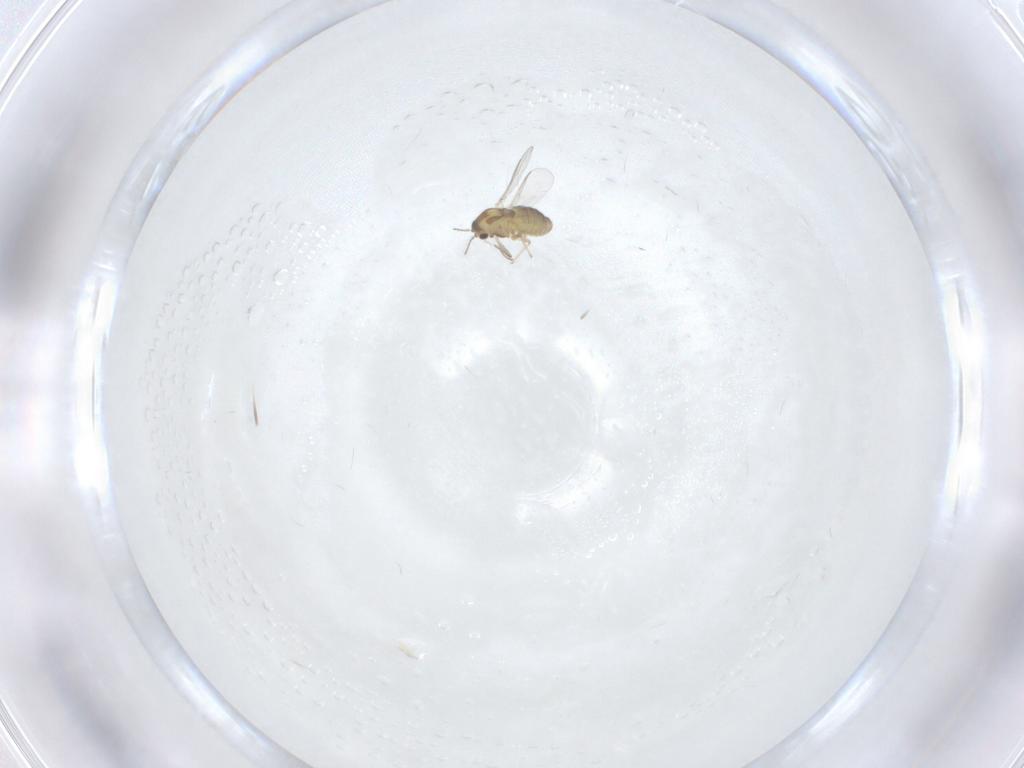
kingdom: Animalia
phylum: Arthropoda
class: Insecta
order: Diptera
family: Chironomidae
